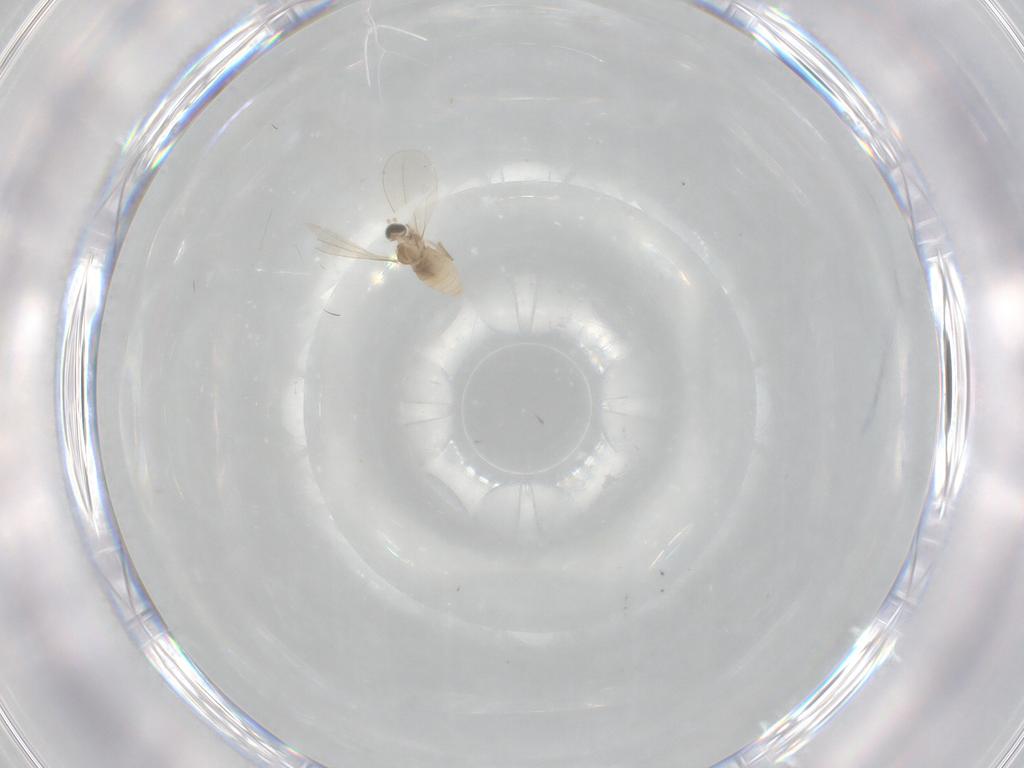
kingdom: Animalia
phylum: Arthropoda
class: Insecta
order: Diptera
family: Cecidomyiidae
